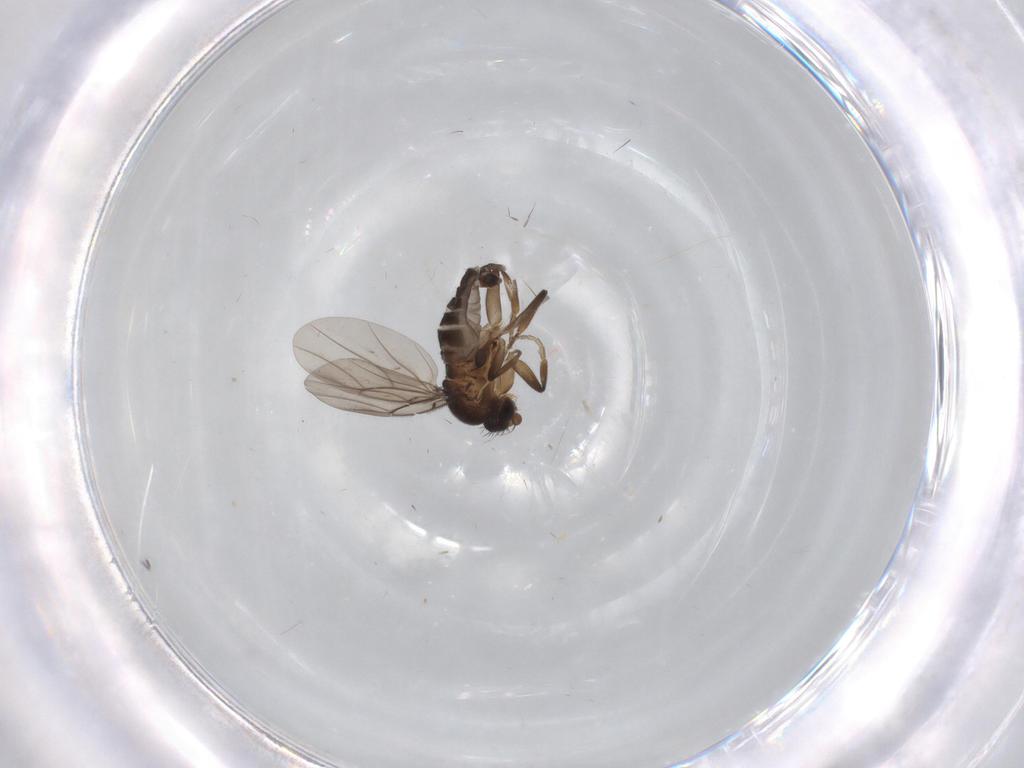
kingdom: Animalia
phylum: Arthropoda
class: Insecta
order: Diptera
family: Phoridae
